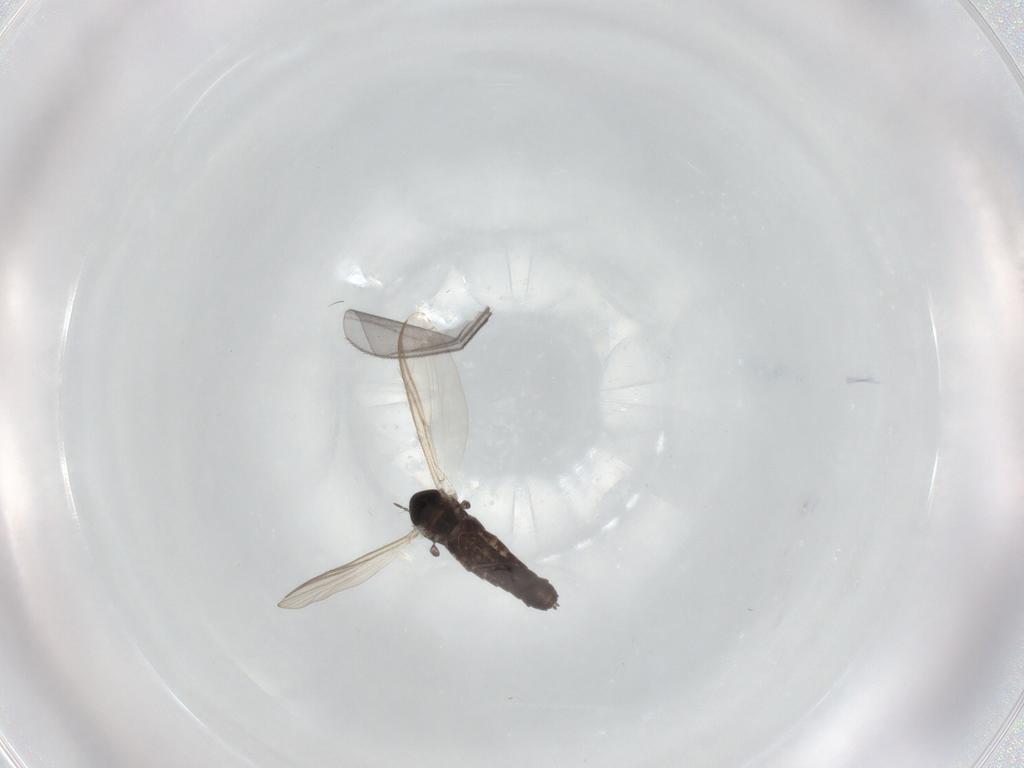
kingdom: Animalia
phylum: Arthropoda
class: Insecta
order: Diptera
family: Chironomidae
